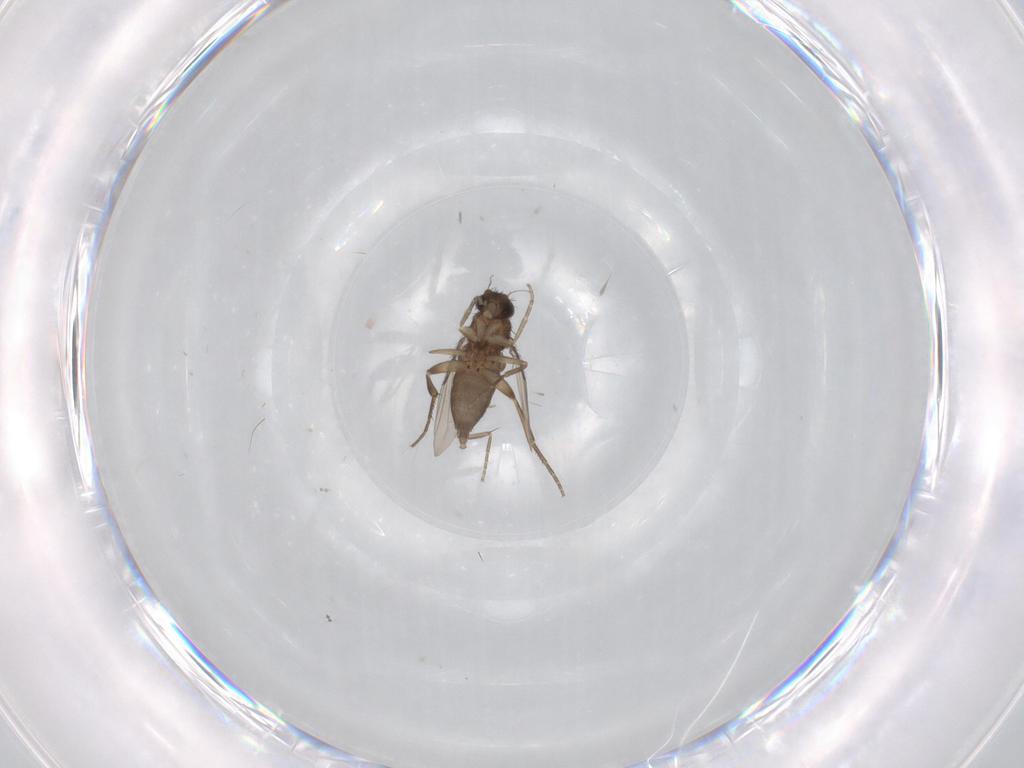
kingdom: Animalia
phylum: Arthropoda
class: Insecta
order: Diptera
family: Phoridae
